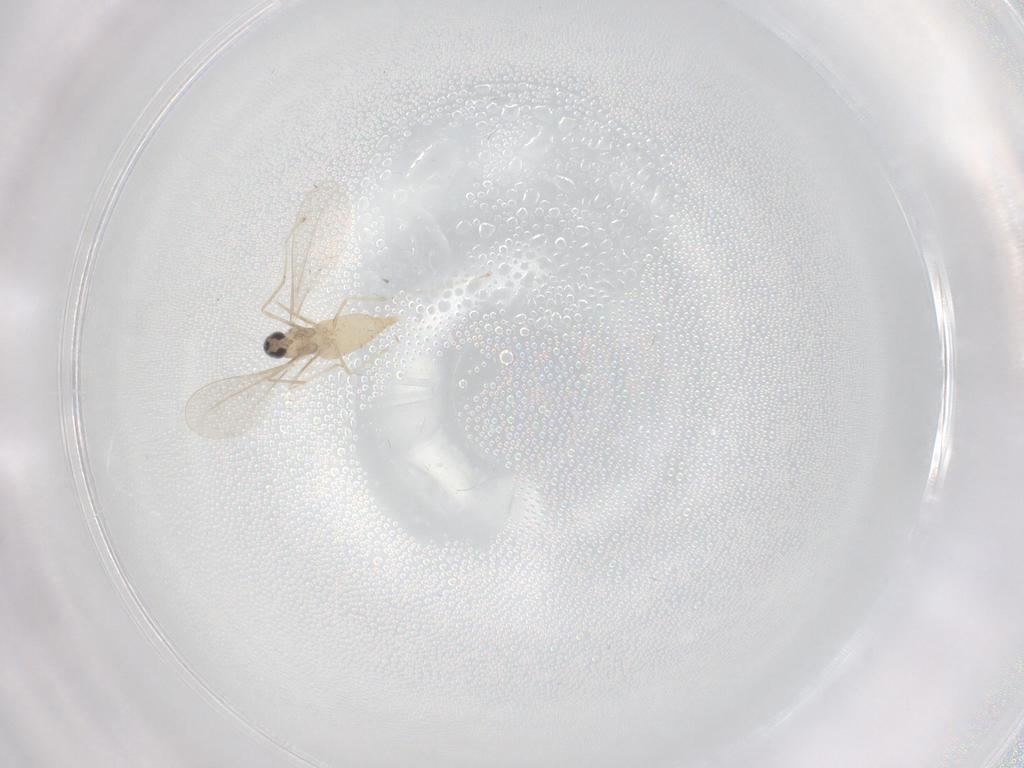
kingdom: Animalia
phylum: Arthropoda
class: Insecta
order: Diptera
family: Cecidomyiidae
